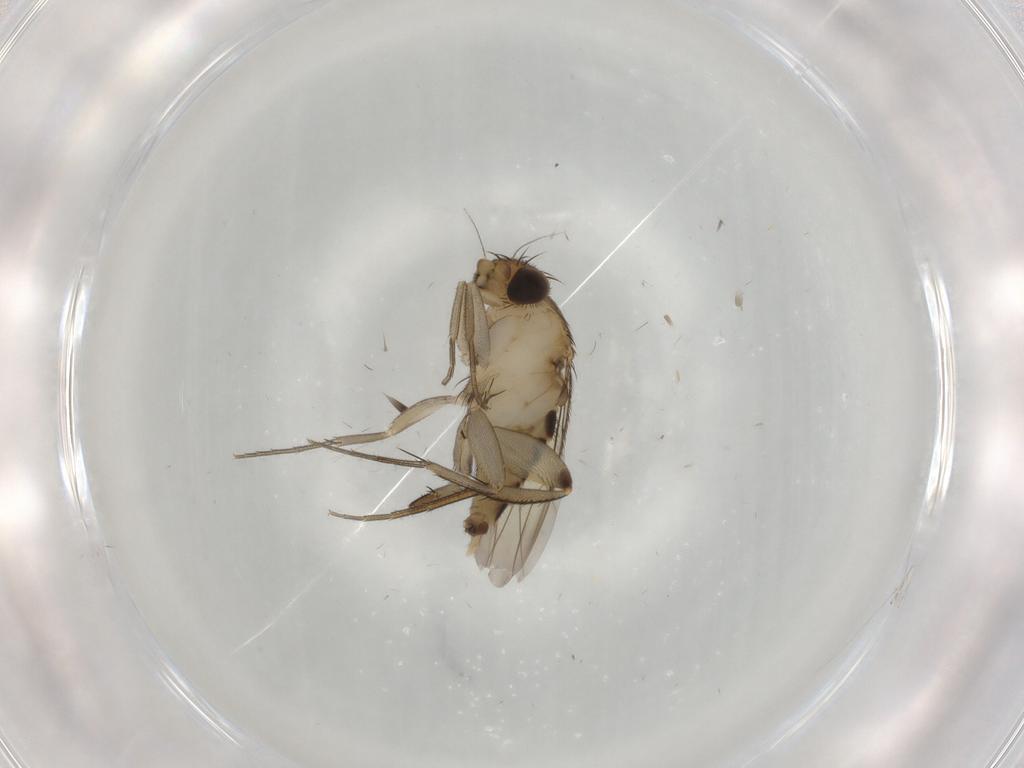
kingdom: Animalia
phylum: Arthropoda
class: Insecta
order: Diptera
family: Phoridae
